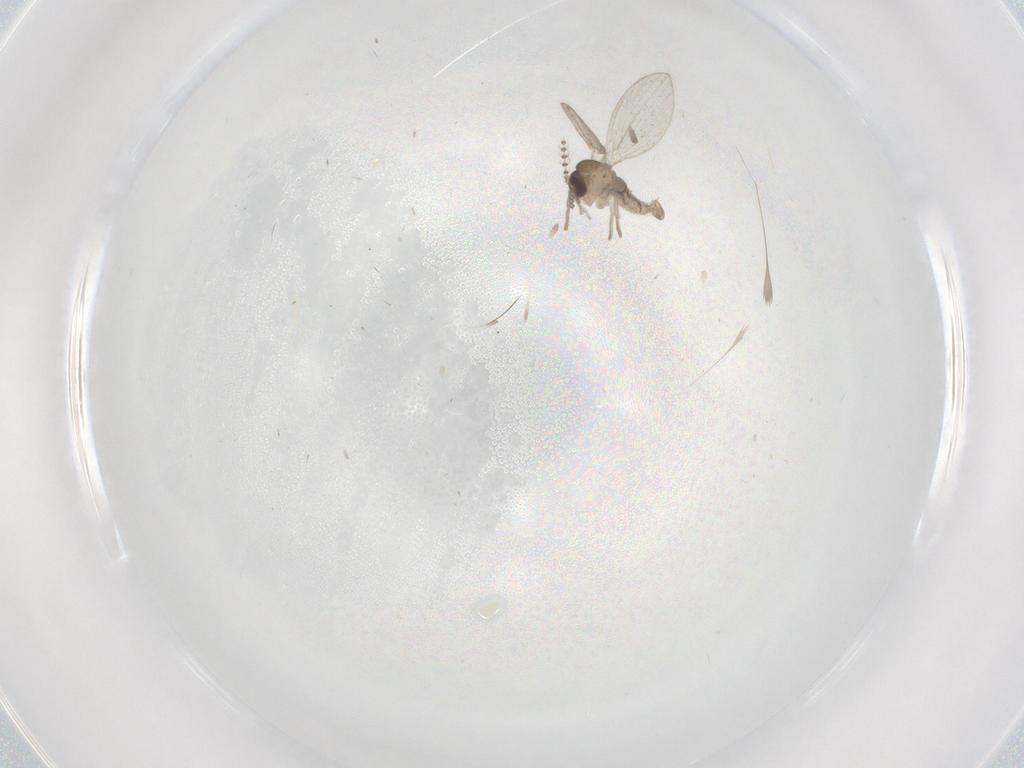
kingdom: Animalia
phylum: Arthropoda
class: Insecta
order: Diptera
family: Psychodidae
